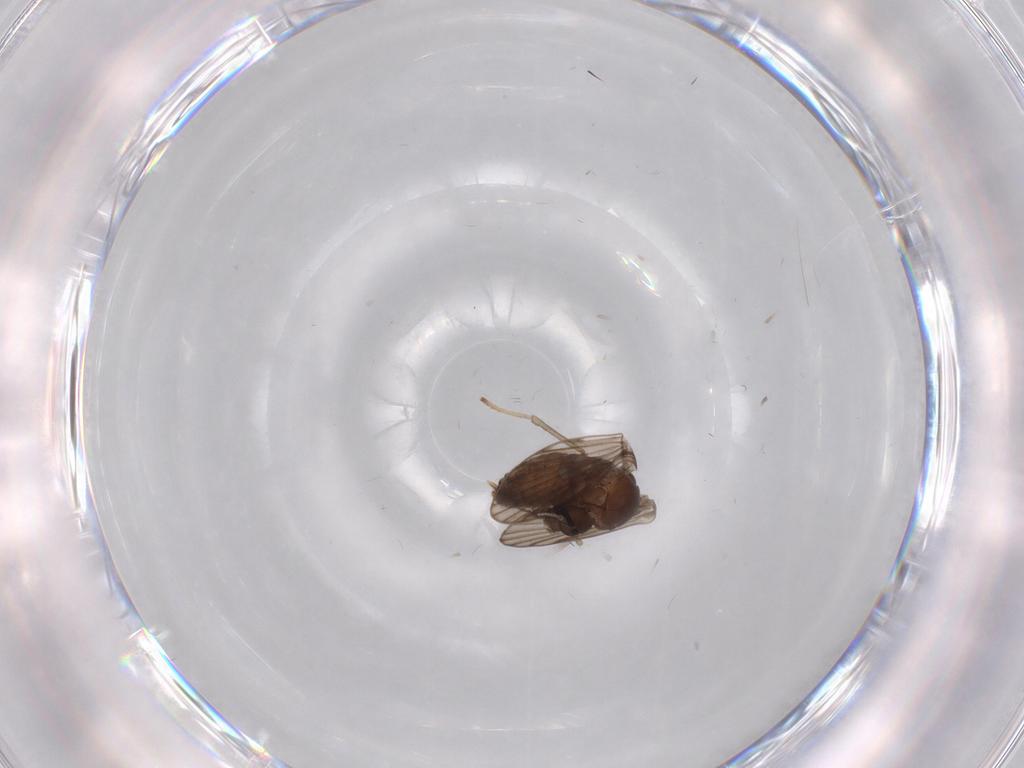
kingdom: Animalia
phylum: Arthropoda
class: Insecta
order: Diptera
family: Psychodidae
